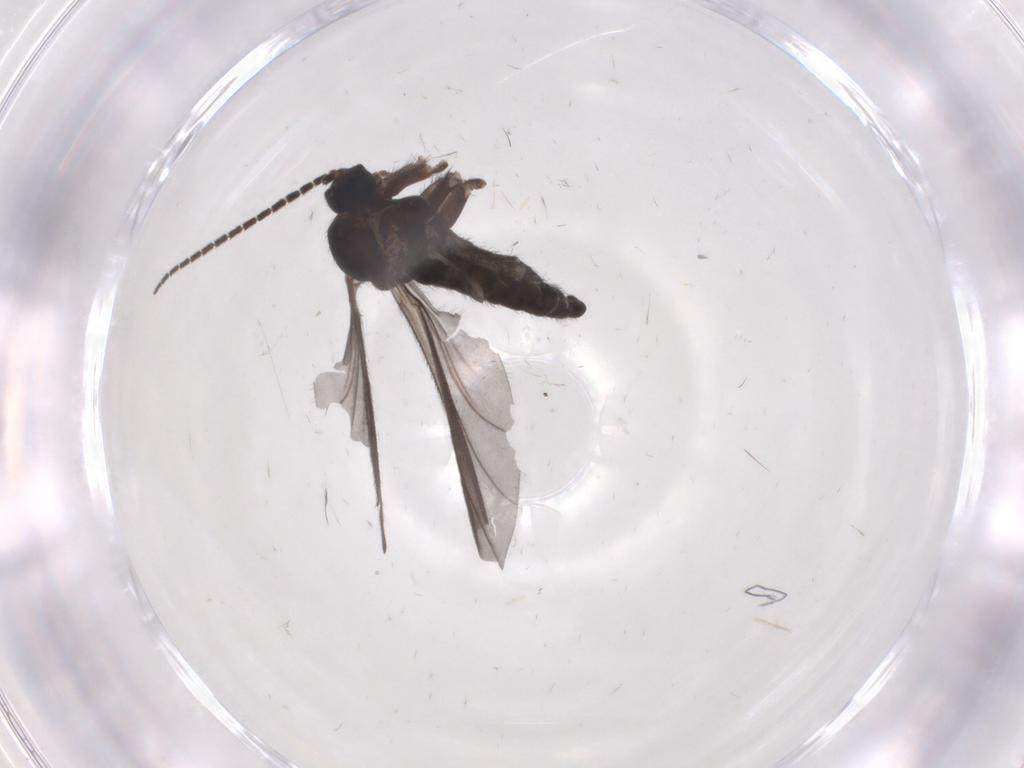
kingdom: Animalia
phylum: Arthropoda
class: Insecta
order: Diptera
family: Sciaridae
